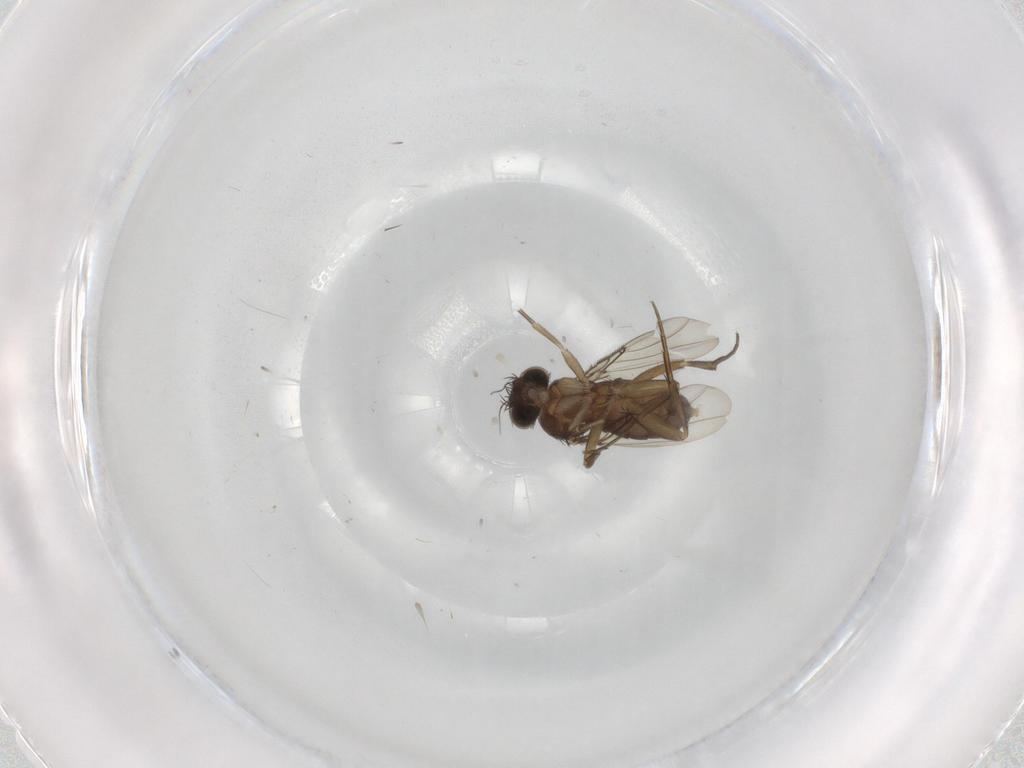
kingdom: Animalia
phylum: Arthropoda
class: Insecta
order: Diptera
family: Phoridae
